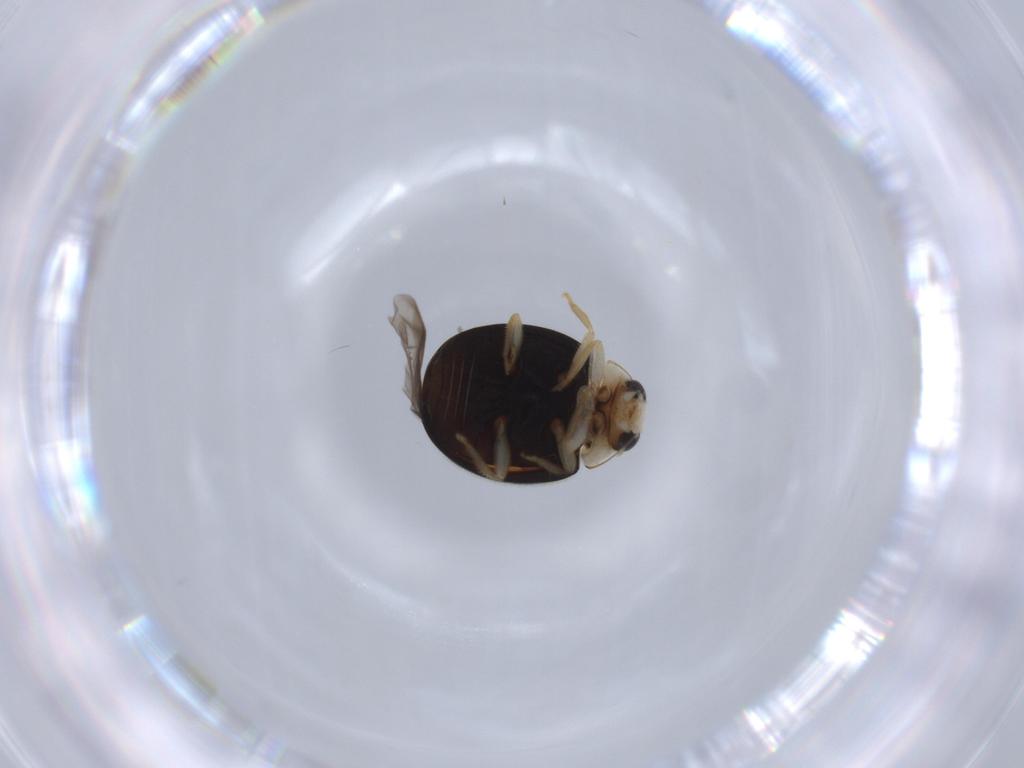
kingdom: Animalia
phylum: Arthropoda
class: Insecta
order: Coleoptera
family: Coccinellidae
